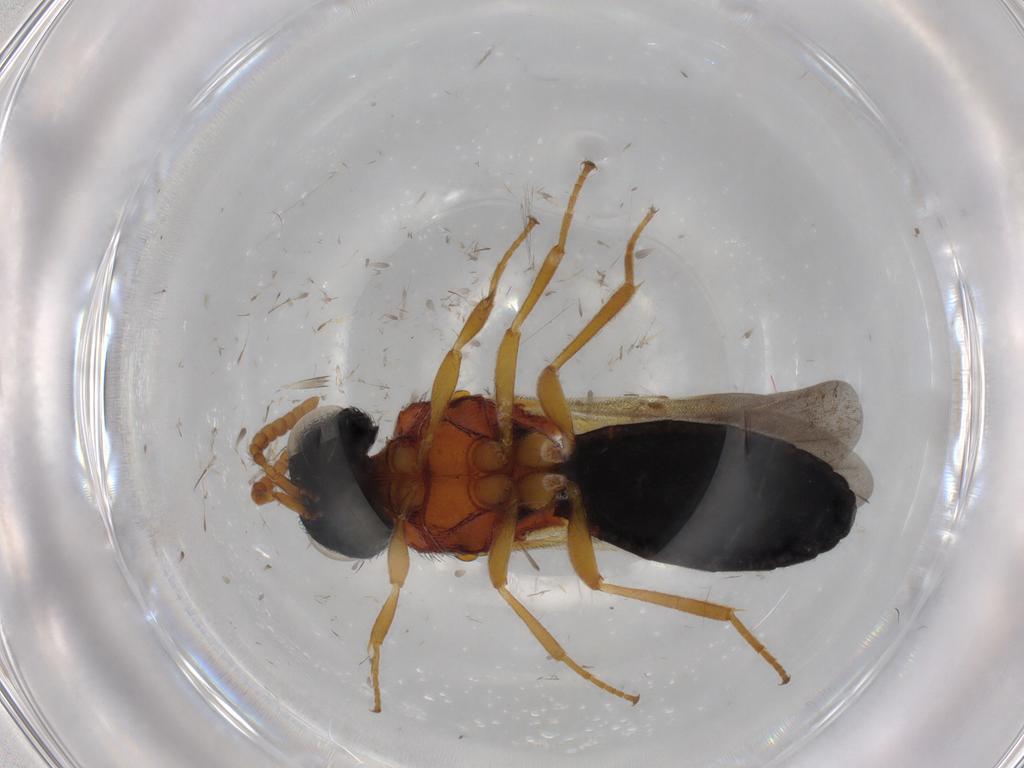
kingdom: Animalia
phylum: Arthropoda
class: Insecta
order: Hymenoptera
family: Scelionidae
